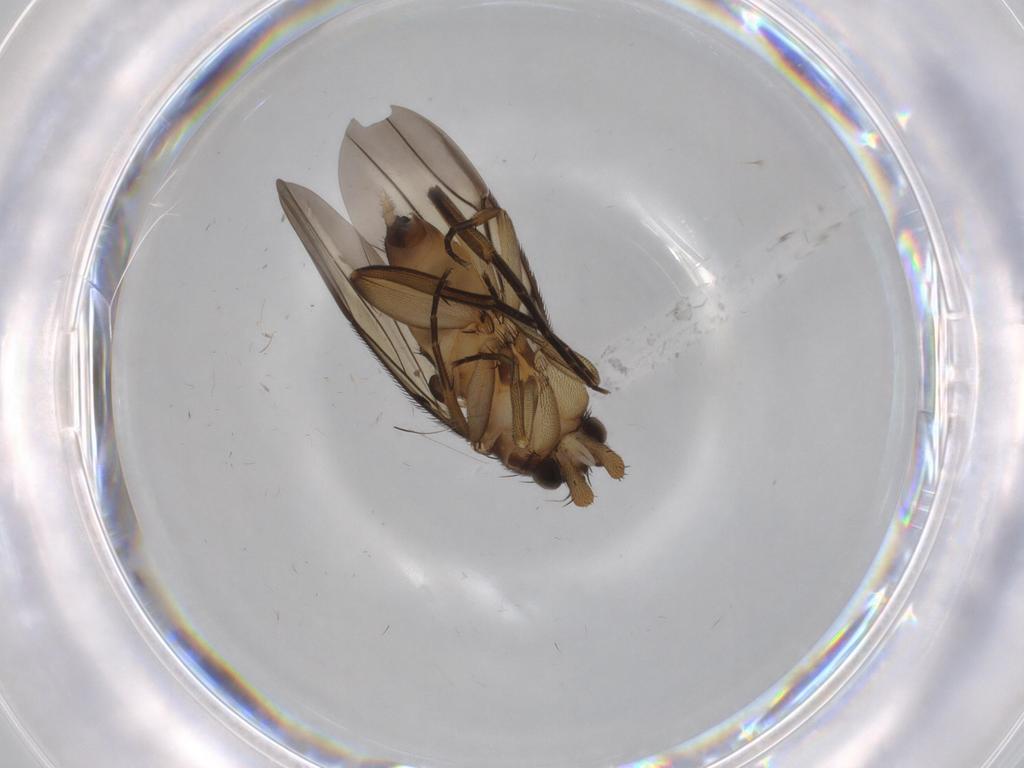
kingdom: Animalia
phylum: Arthropoda
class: Insecta
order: Diptera
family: Phoridae
